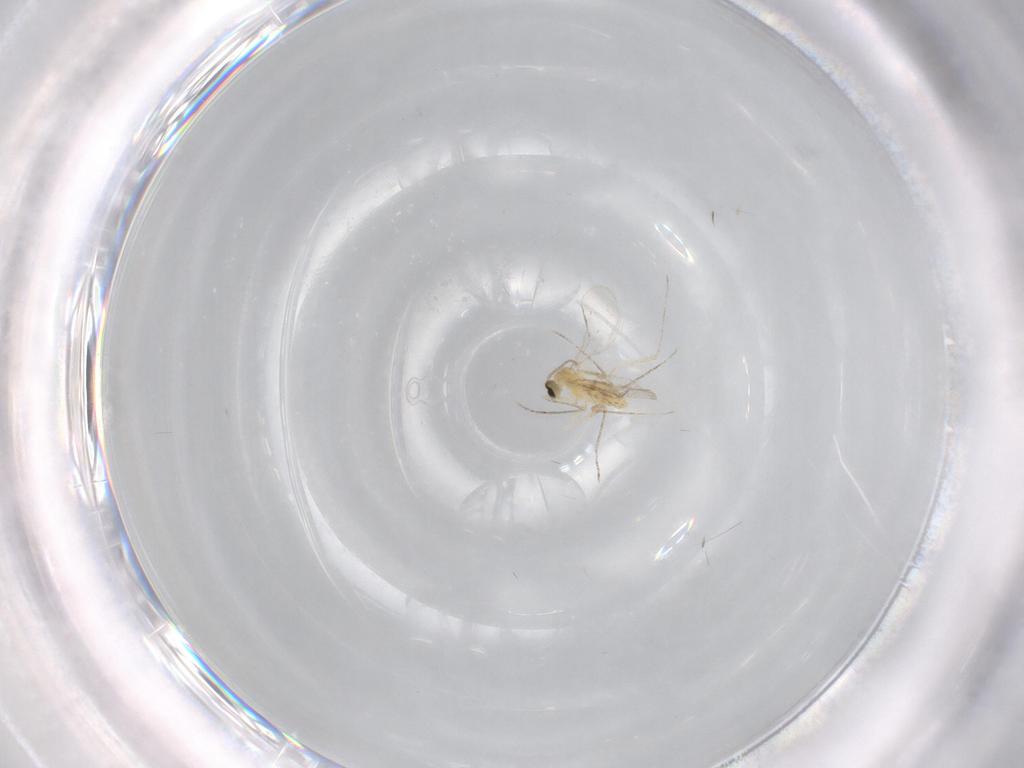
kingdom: Animalia
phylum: Arthropoda
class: Insecta
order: Diptera
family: Cecidomyiidae
